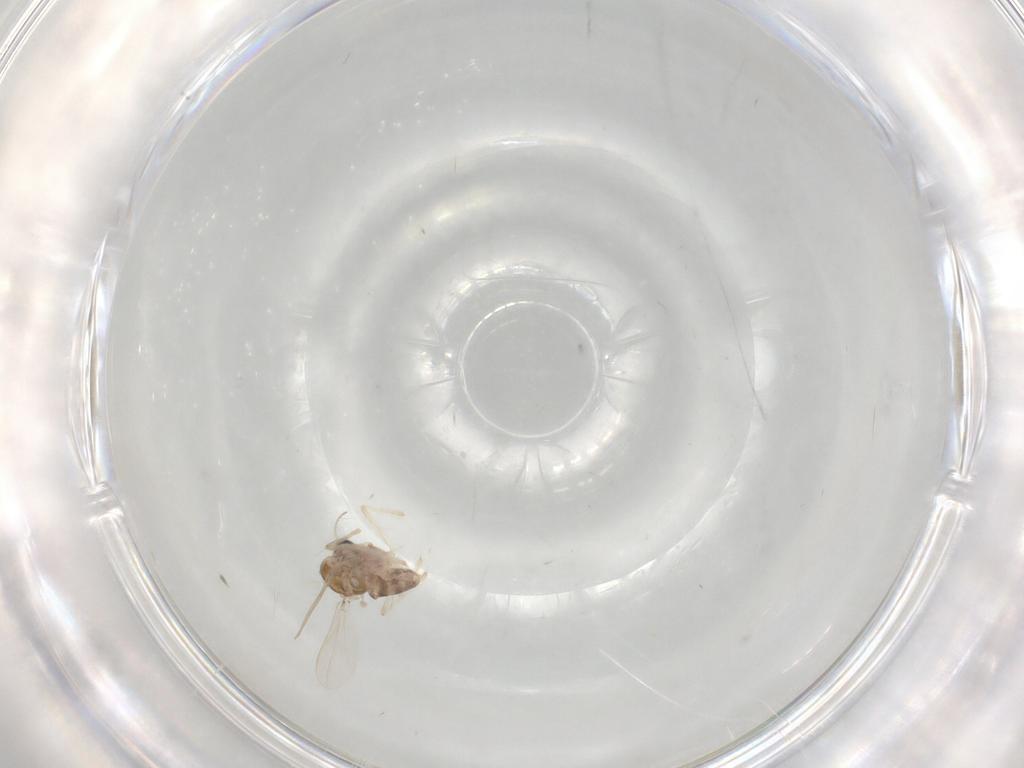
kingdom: Animalia
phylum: Arthropoda
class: Insecta
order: Diptera
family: Chironomidae
